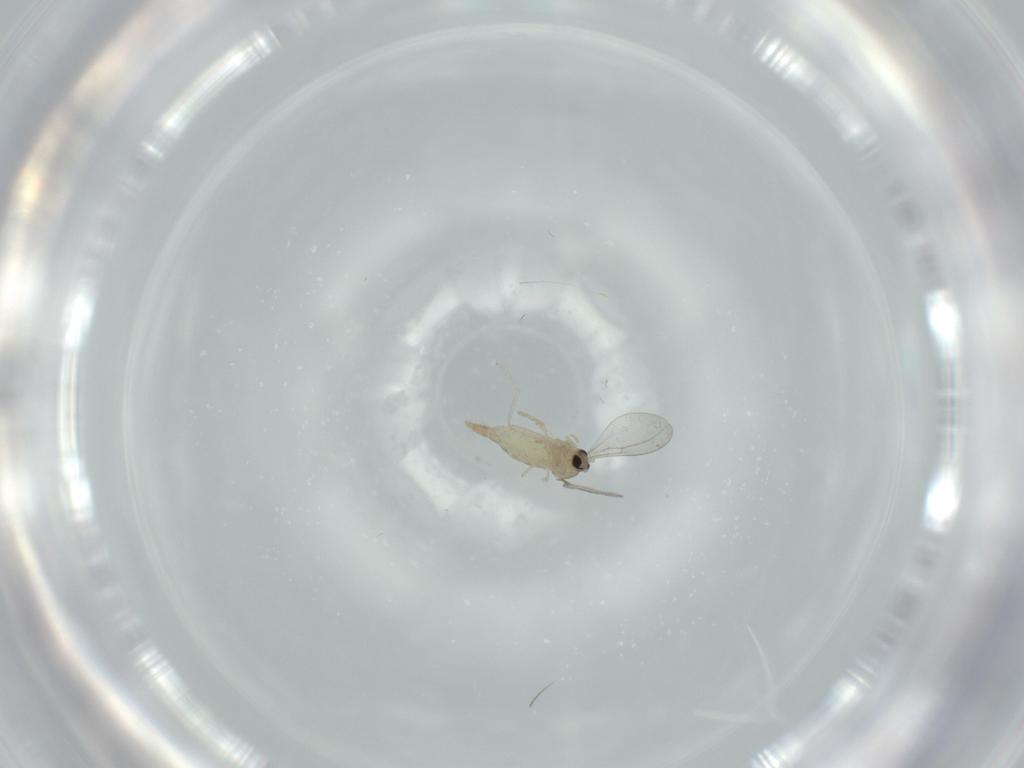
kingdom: Animalia
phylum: Arthropoda
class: Insecta
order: Diptera
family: Cecidomyiidae
